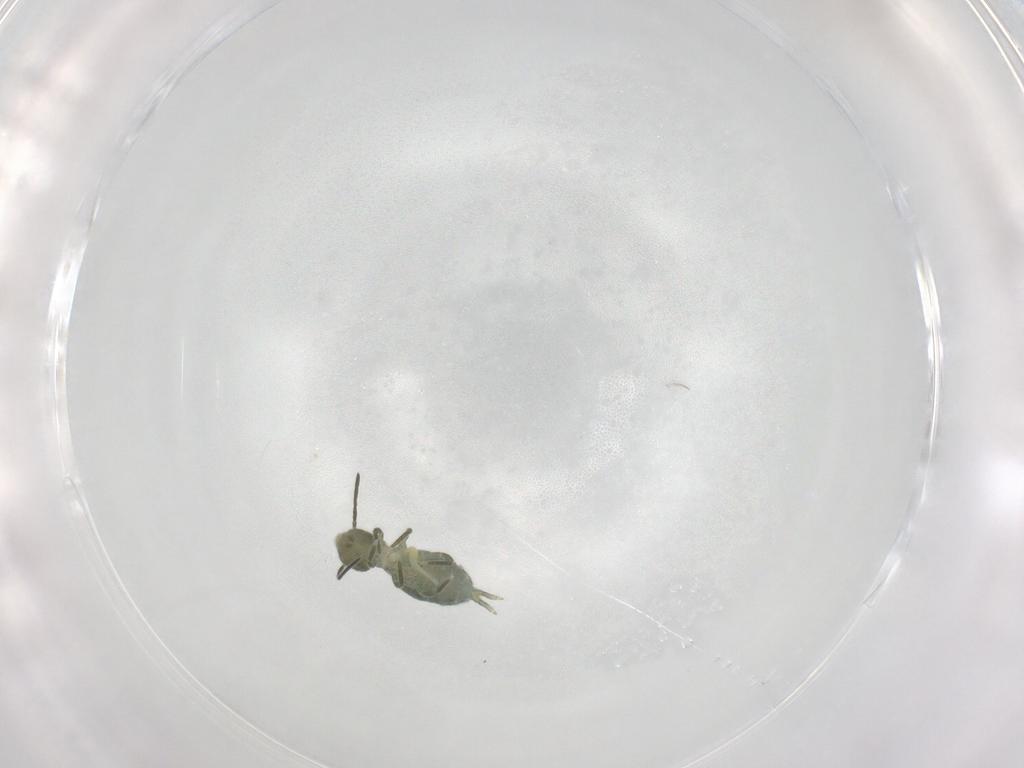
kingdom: Animalia
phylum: Arthropoda
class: Collembola
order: Symphypleona
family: Sminthuridae
